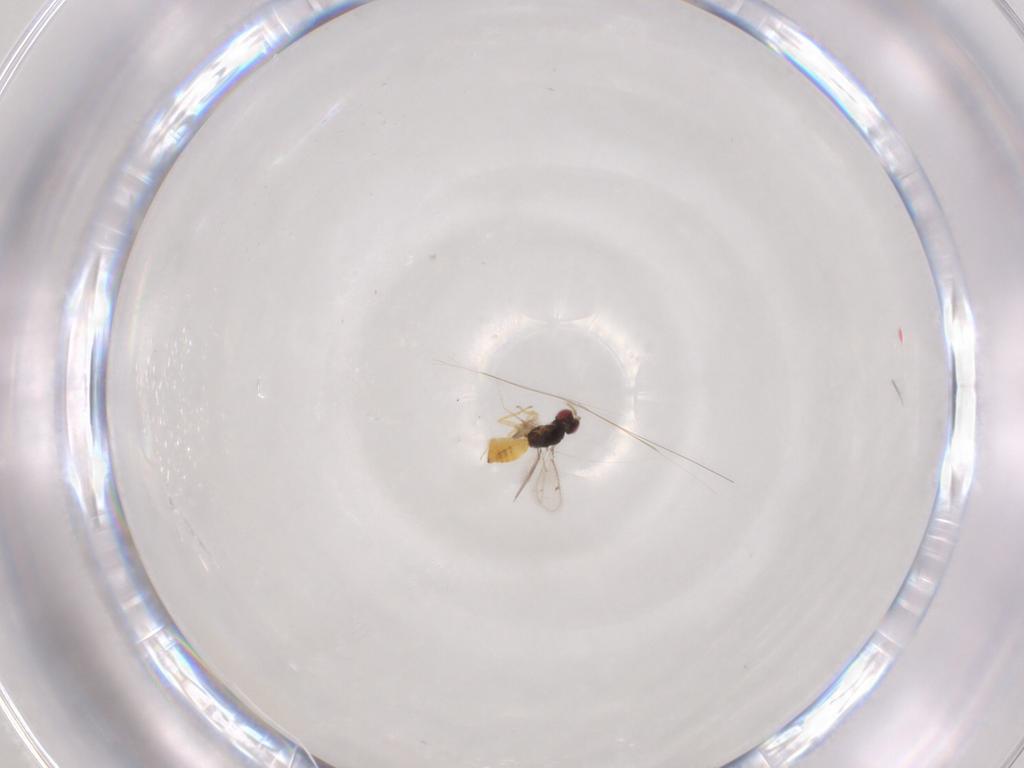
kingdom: Animalia
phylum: Arthropoda
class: Insecta
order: Hymenoptera
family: Eulophidae
